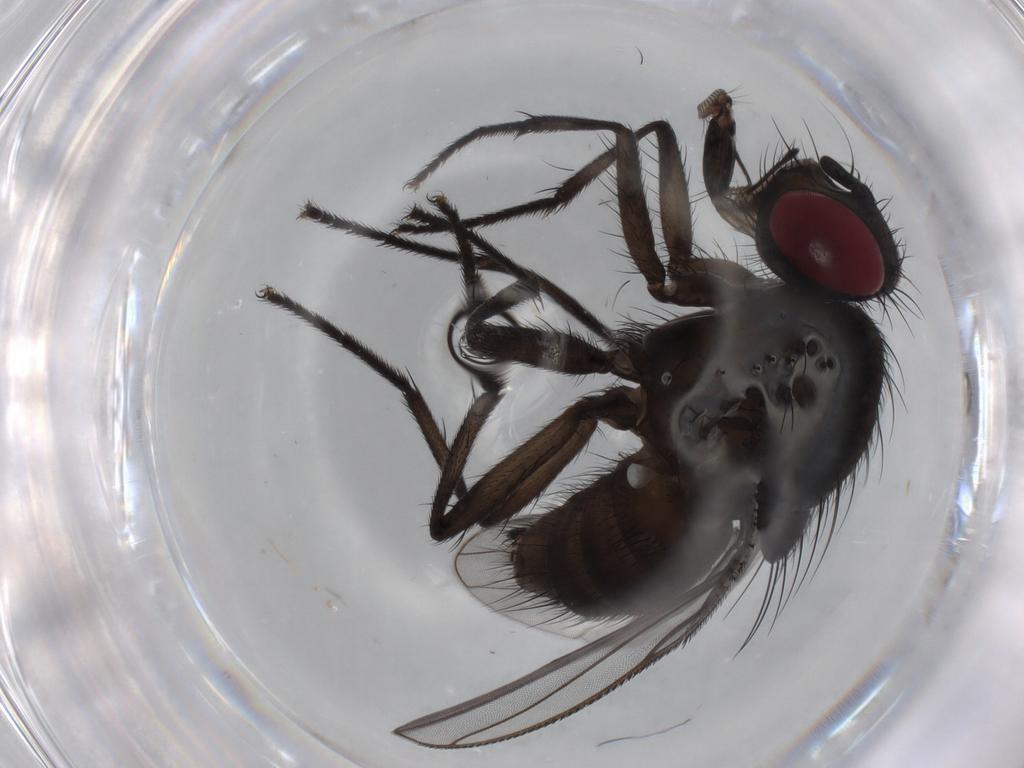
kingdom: Animalia
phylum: Arthropoda
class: Insecta
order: Diptera
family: Muscidae
